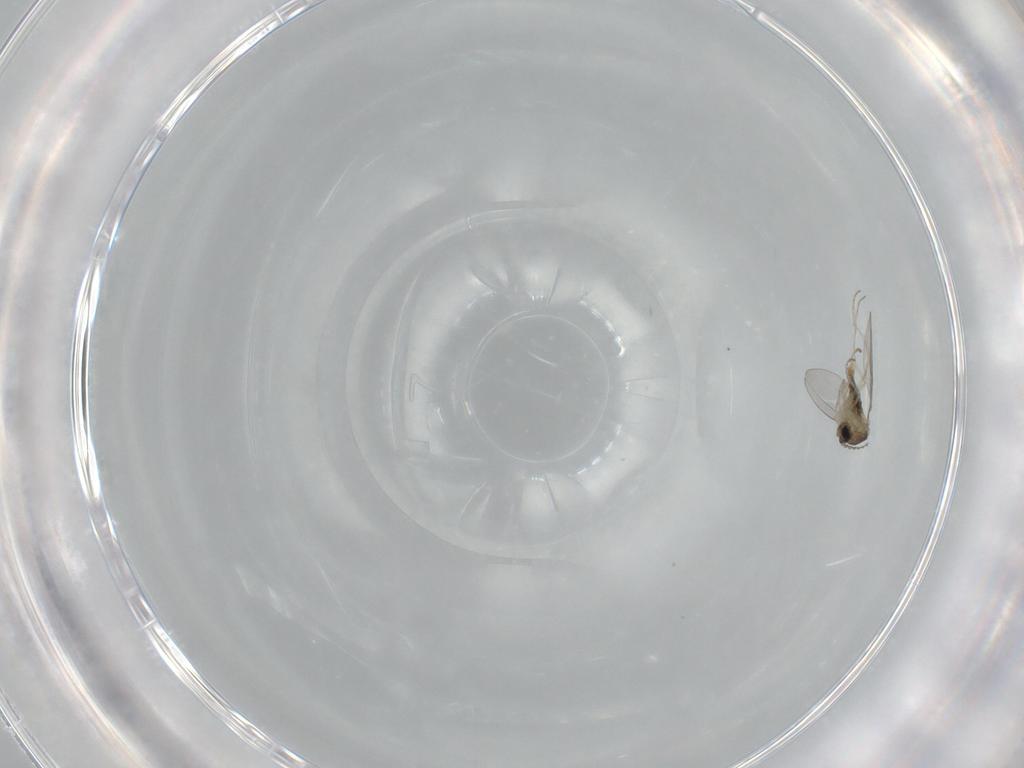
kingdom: Animalia
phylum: Arthropoda
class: Insecta
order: Diptera
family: Cecidomyiidae
